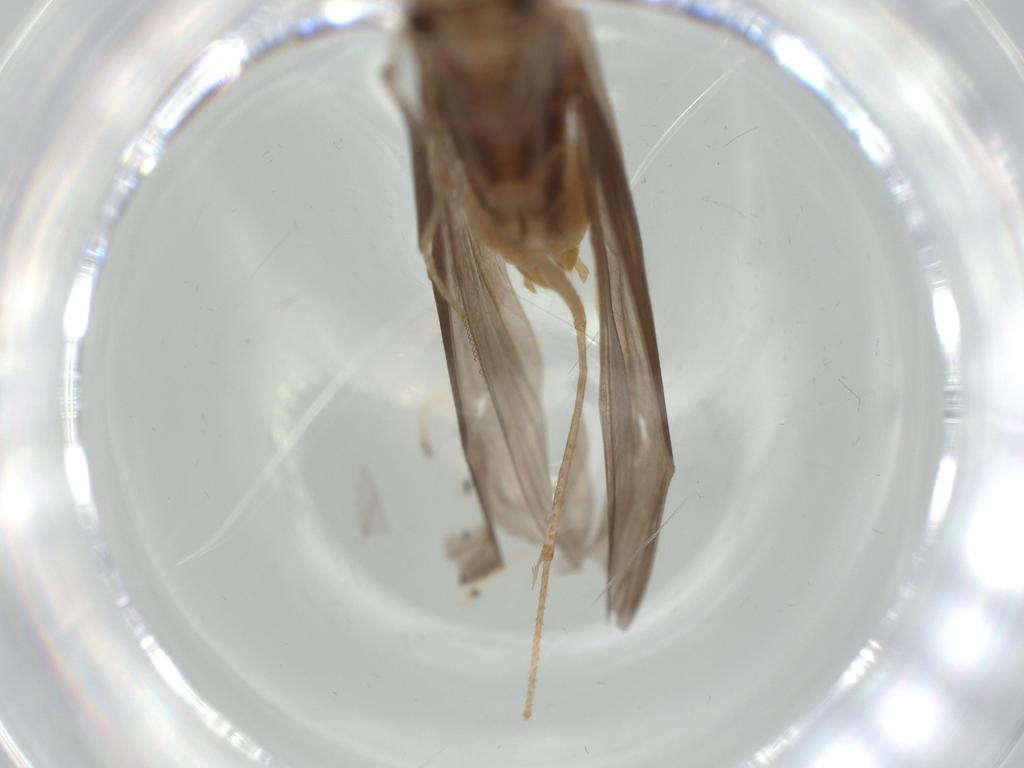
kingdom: Animalia
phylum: Arthropoda
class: Insecta
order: Trichoptera
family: Leptoceridae
